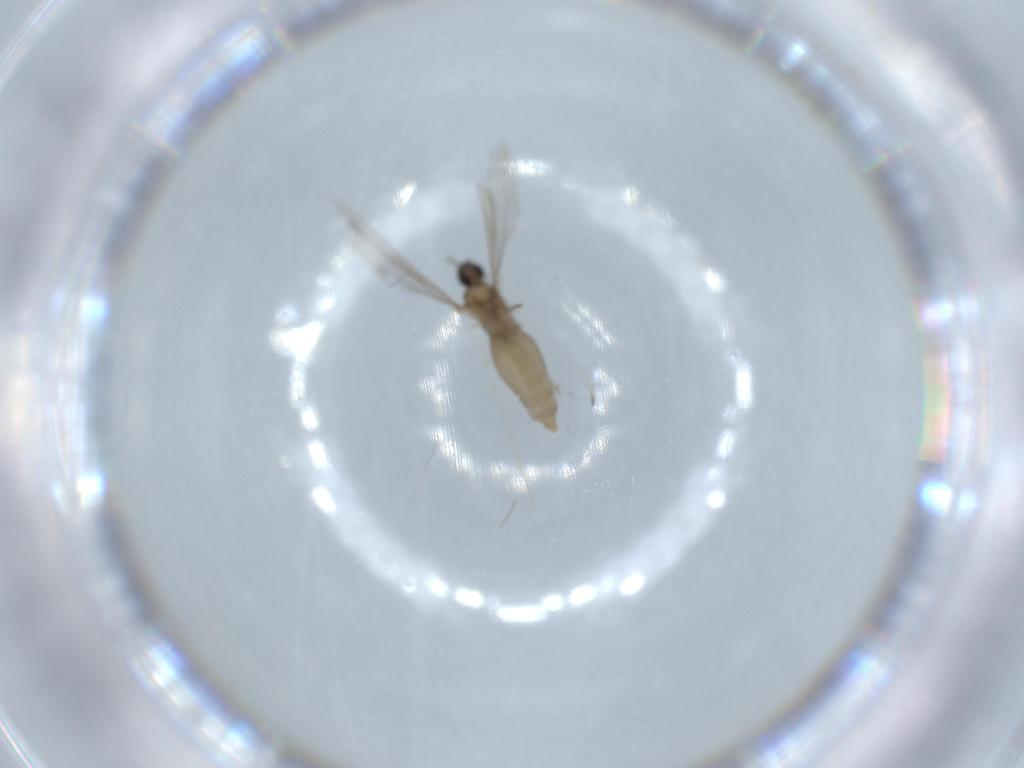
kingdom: Animalia
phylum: Arthropoda
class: Insecta
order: Diptera
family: Cecidomyiidae
